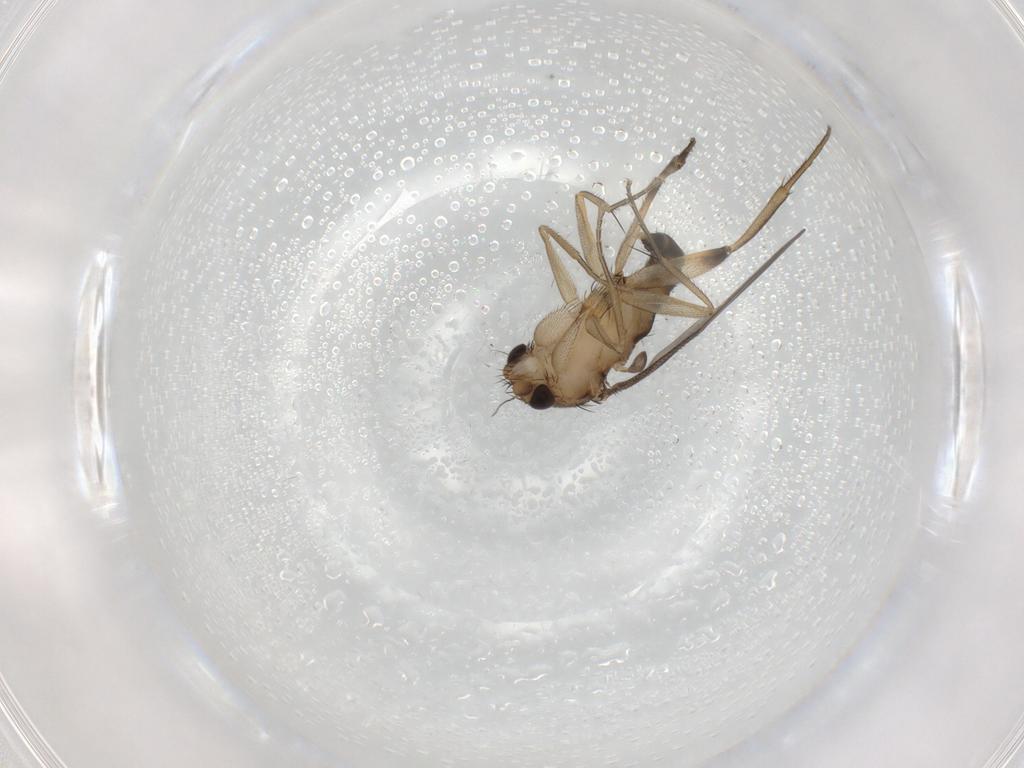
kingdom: Animalia
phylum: Arthropoda
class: Insecta
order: Diptera
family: Phoridae
